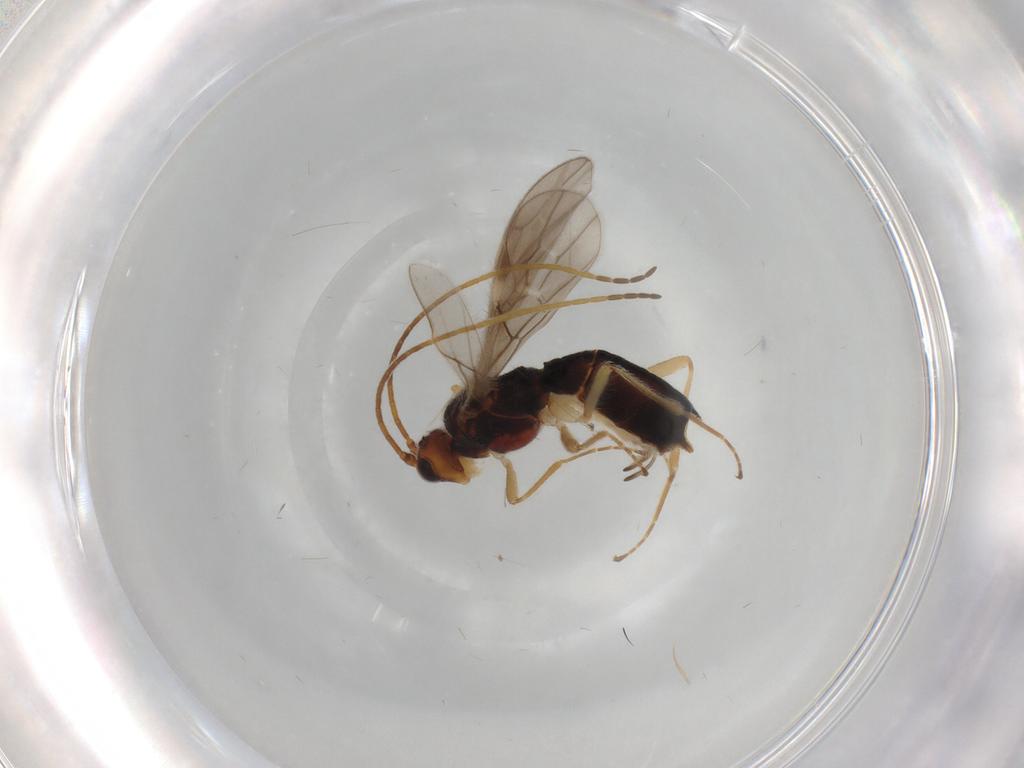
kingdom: Animalia
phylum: Arthropoda
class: Insecta
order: Hymenoptera
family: Braconidae
